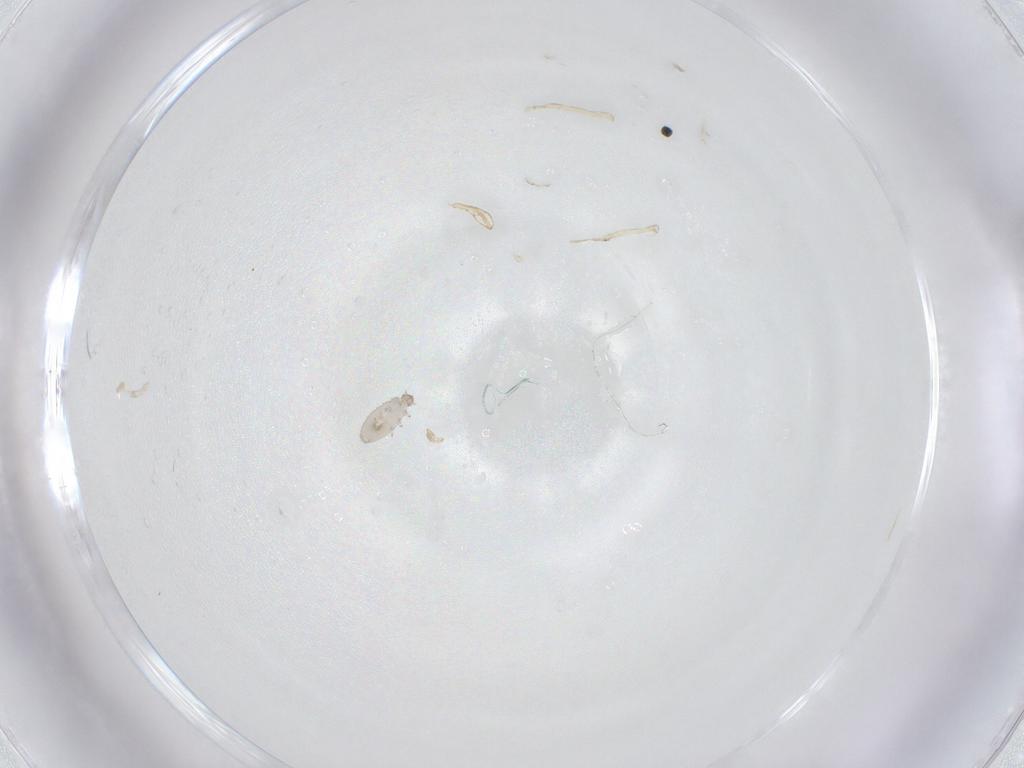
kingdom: Animalia
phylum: Arthropoda
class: Insecta
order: Coleoptera
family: Corylophidae
